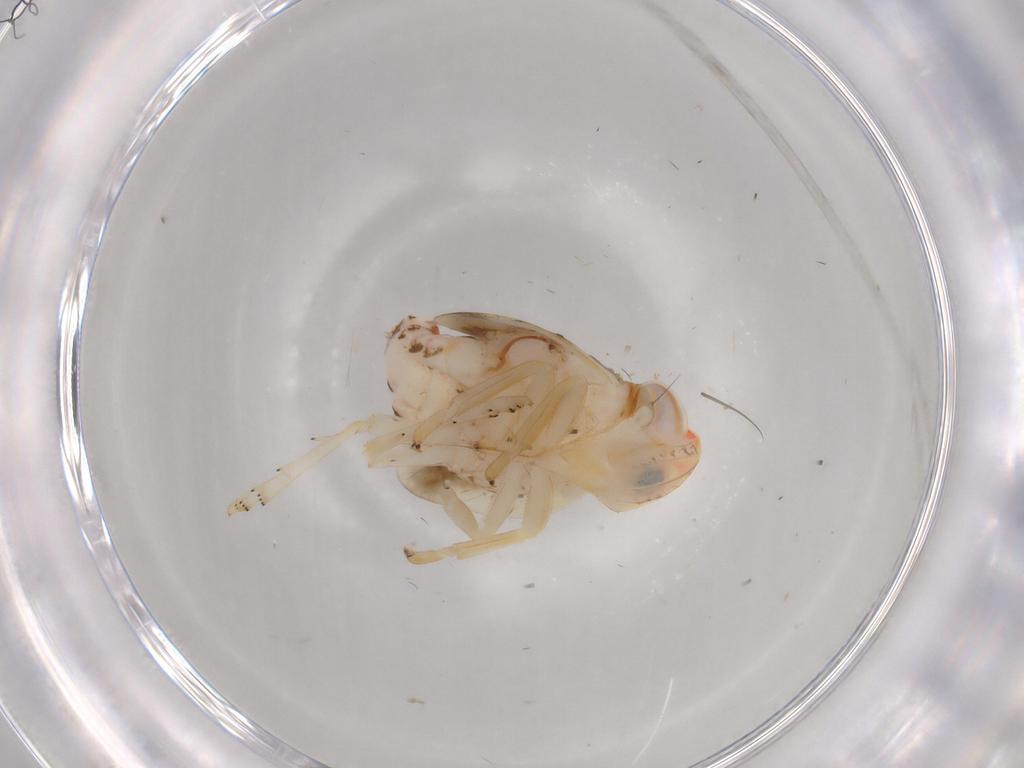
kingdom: Animalia
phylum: Arthropoda
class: Insecta
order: Hemiptera
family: Nogodinidae
